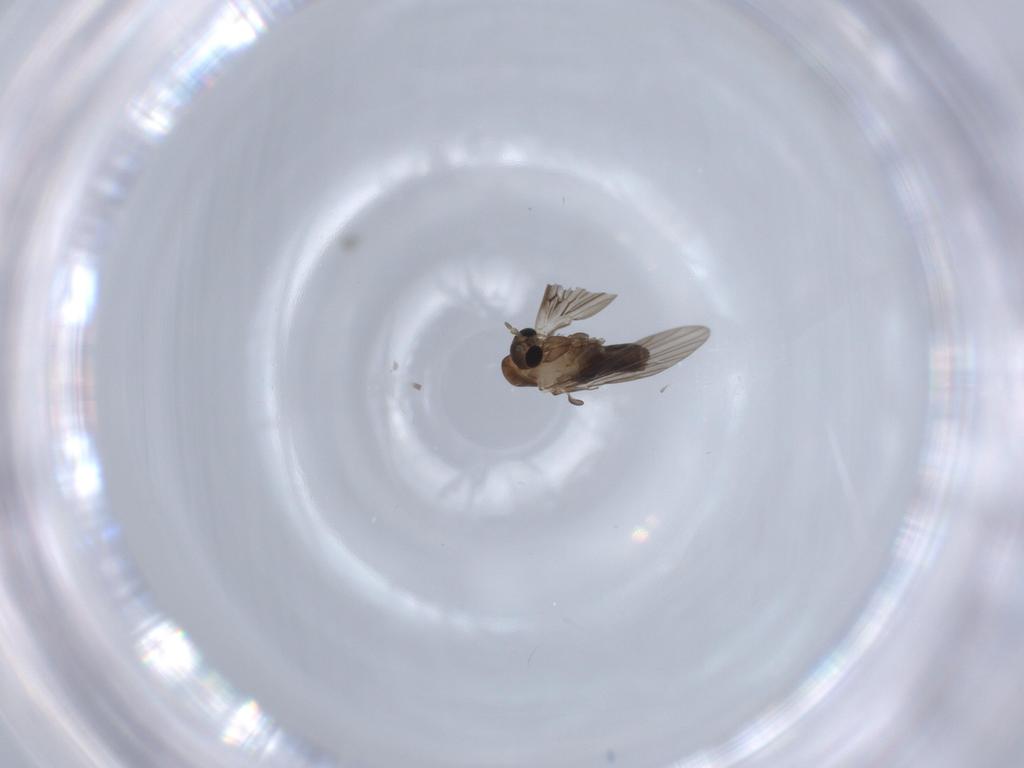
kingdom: Animalia
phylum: Arthropoda
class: Insecta
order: Diptera
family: Psychodidae
